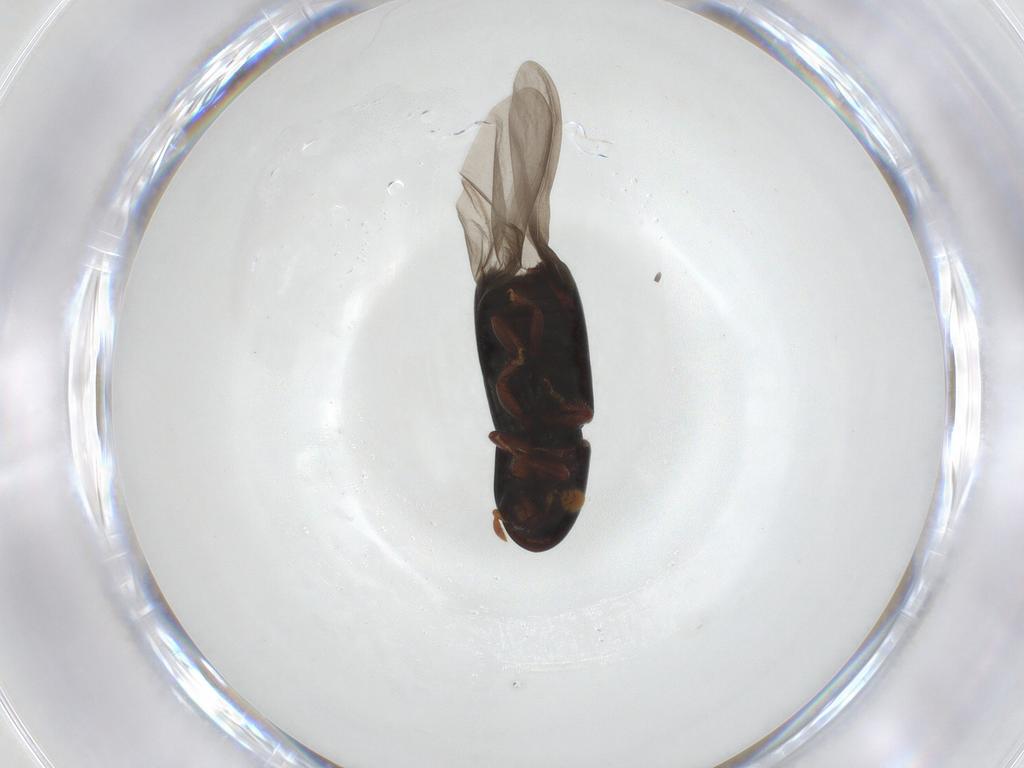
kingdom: Animalia
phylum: Arthropoda
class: Insecta
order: Coleoptera
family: Curculionidae
